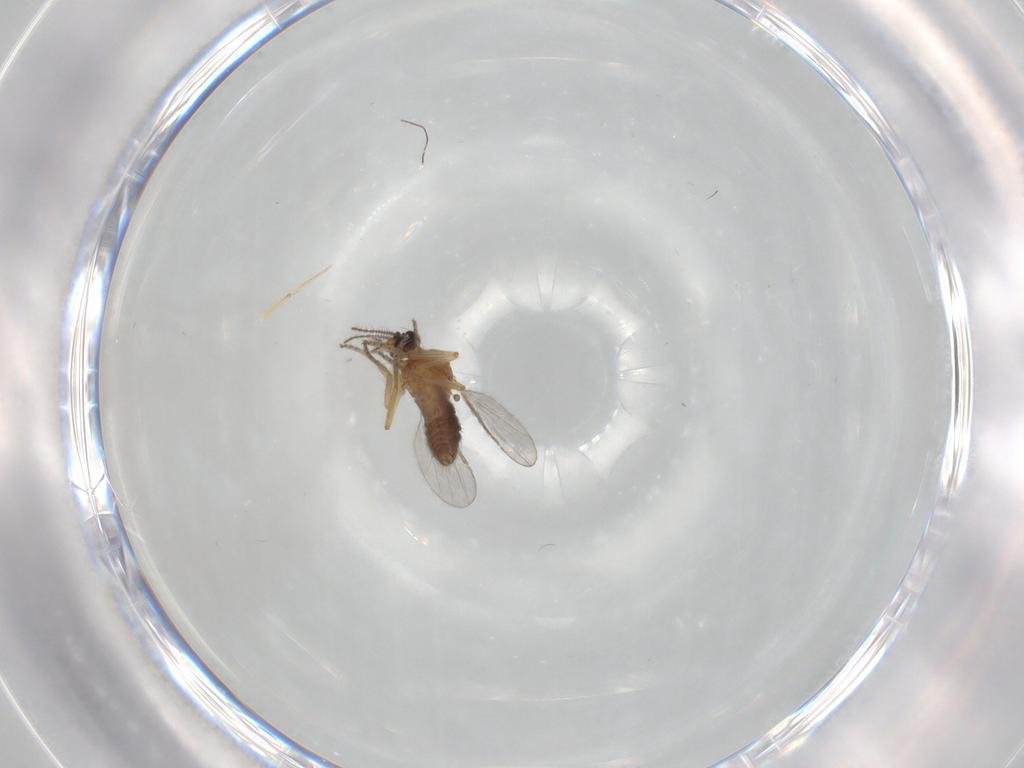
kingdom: Animalia
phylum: Arthropoda
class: Insecta
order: Diptera
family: Ceratopogonidae
